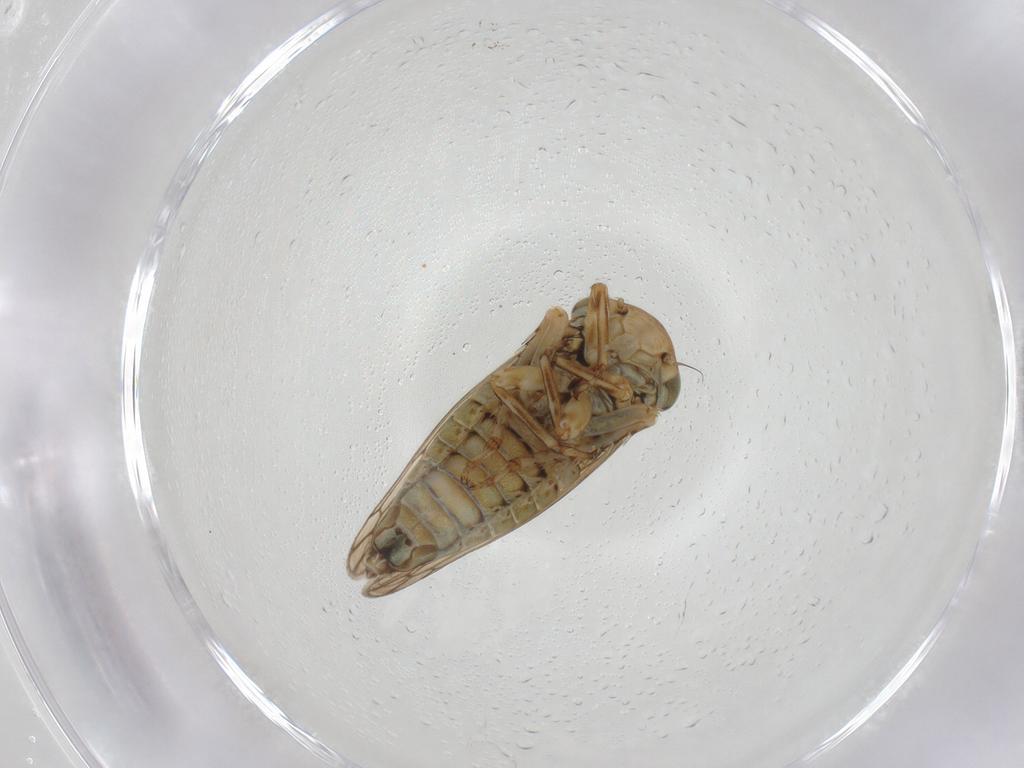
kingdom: Animalia
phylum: Arthropoda
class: Insecta
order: Hemiptera
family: Cicadellidae
